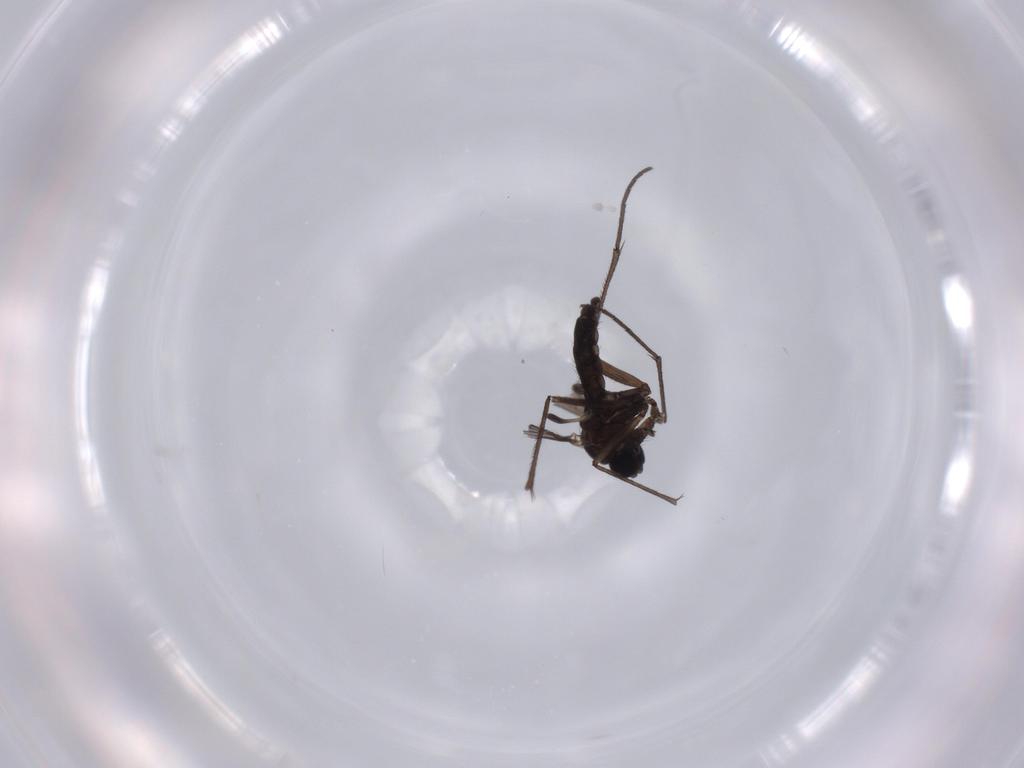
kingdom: Animalia
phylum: Arthropoda
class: Insecta
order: Diptera
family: Sciaridae
